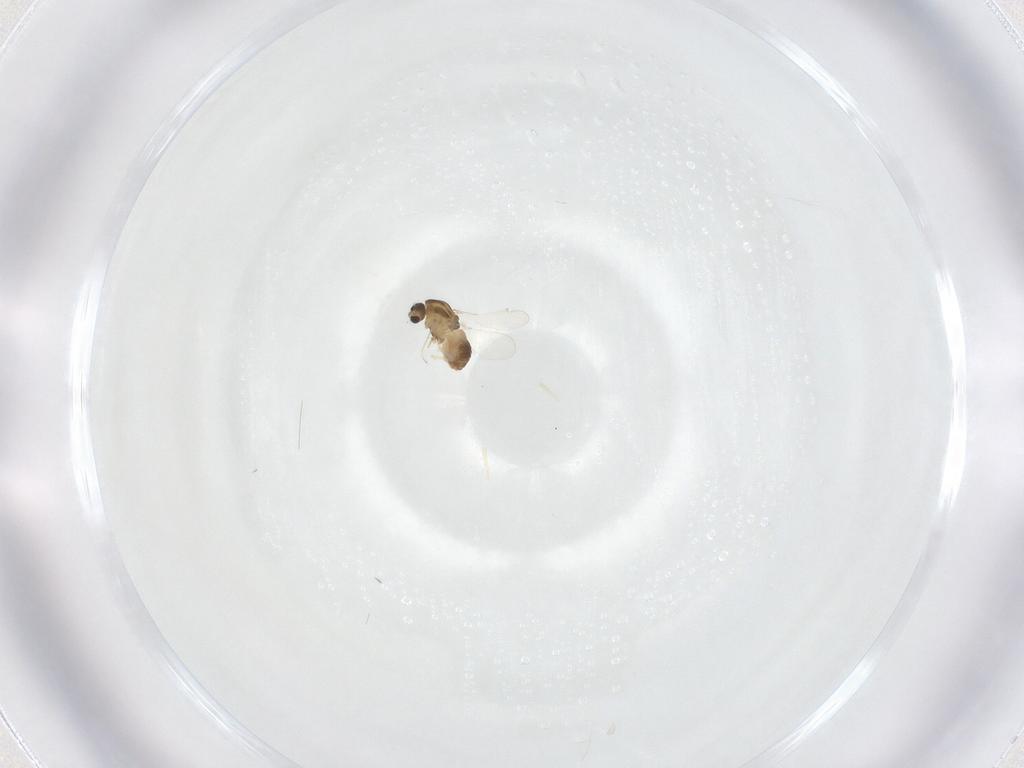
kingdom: Animalia
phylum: Arthropoda
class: Insecta
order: Diptera
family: Chironomidae
